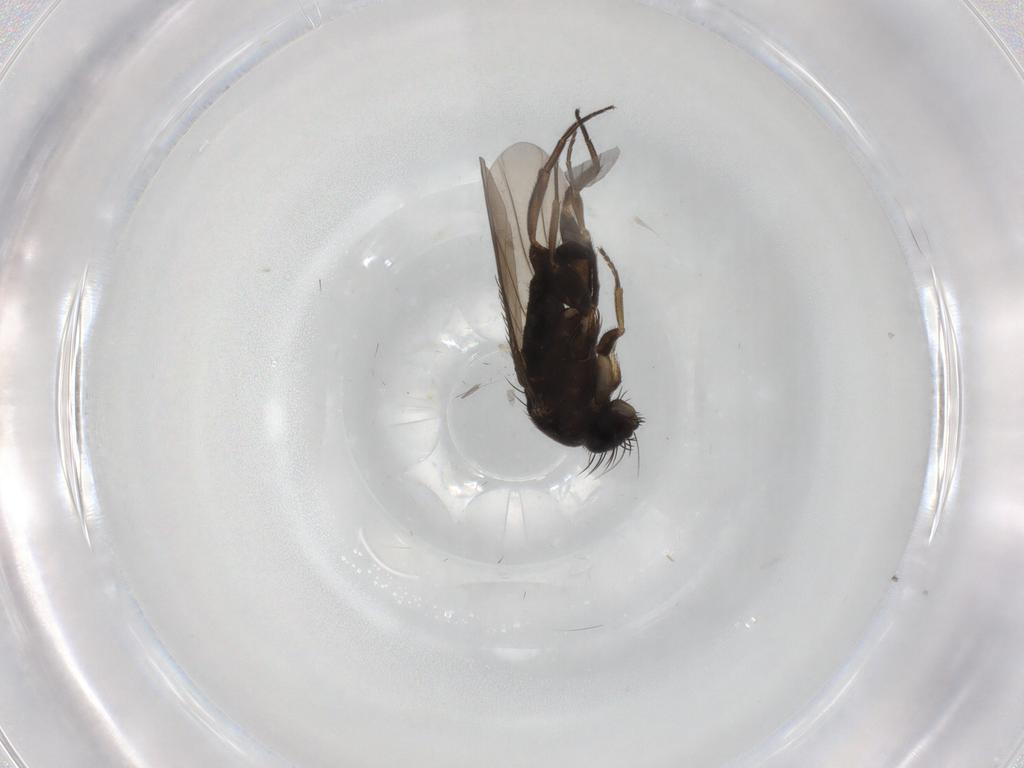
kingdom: Animalia
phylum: Arthropoda
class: Insecta
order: Diptera
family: Phoridae
